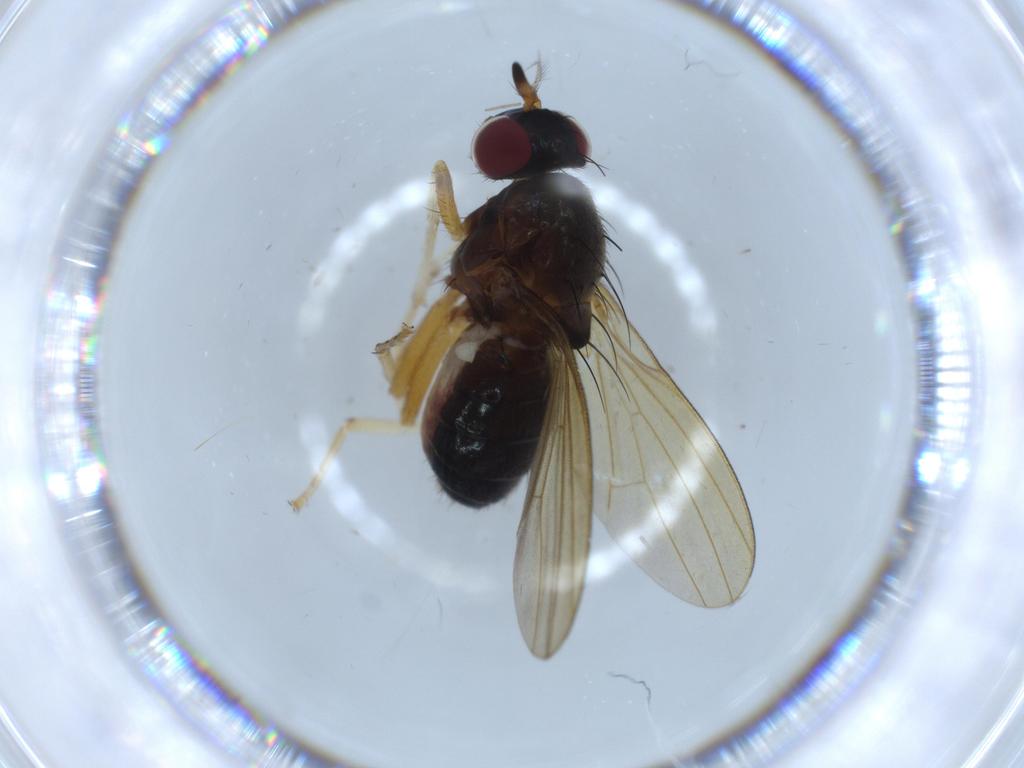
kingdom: Animalia
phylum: Arthropoda
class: Insecta
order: Diptera
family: Lauxaniidae
